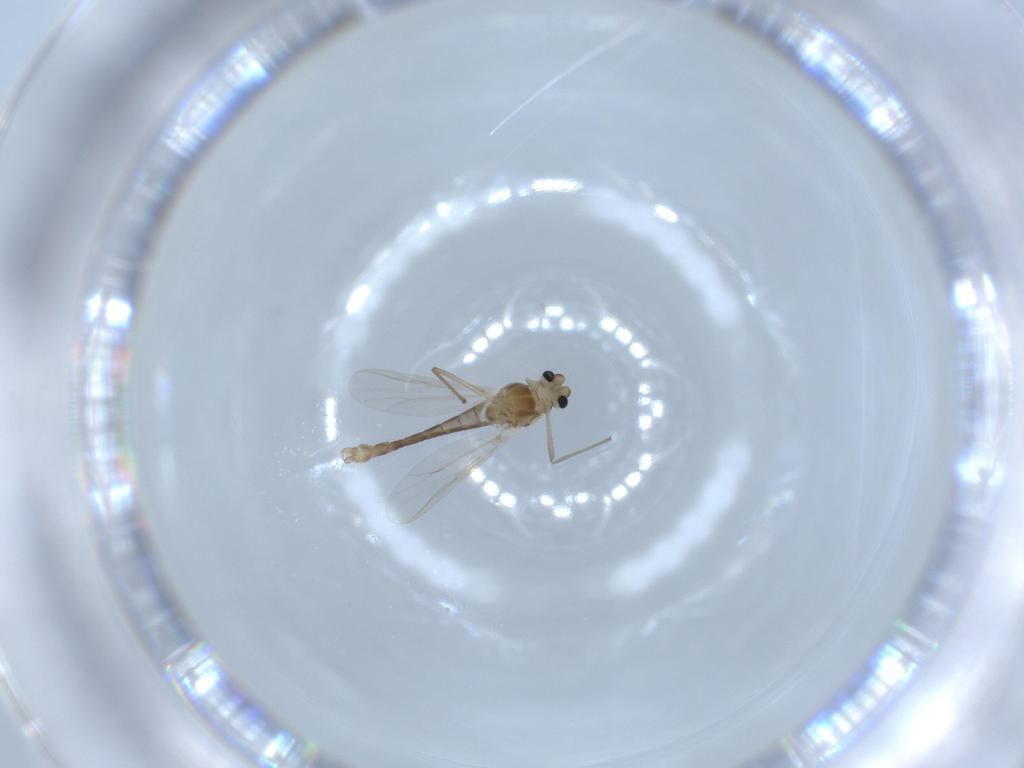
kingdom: Animalia
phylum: Arthropoda
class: Insecta
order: Diptera
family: Chironomidae
